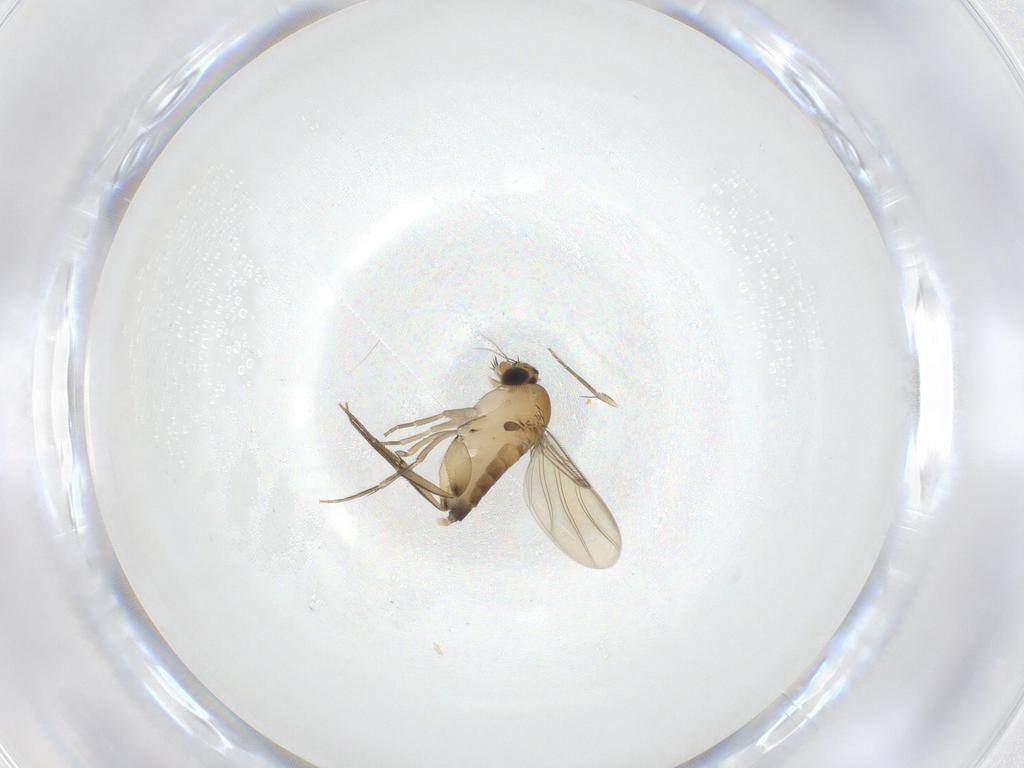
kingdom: Animalia
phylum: Arthropoda
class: Insecta
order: Diptera
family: Phoridae
